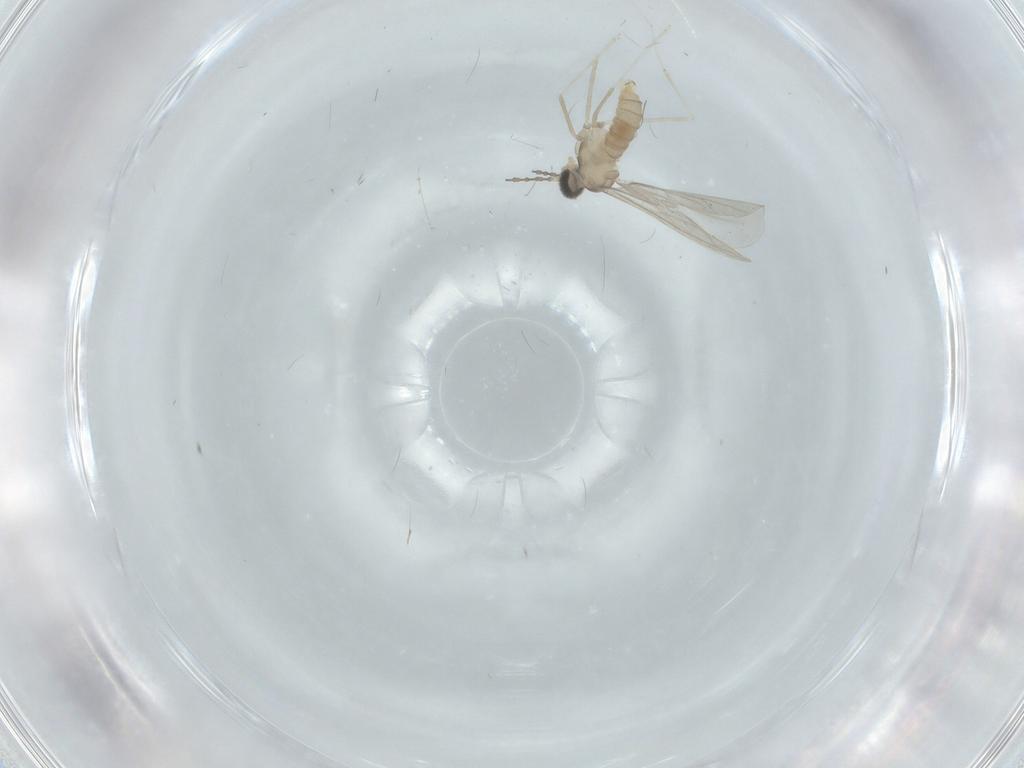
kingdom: Animalia
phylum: Arthropoda
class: Insecta
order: Diptera
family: Cecidomyiidae
